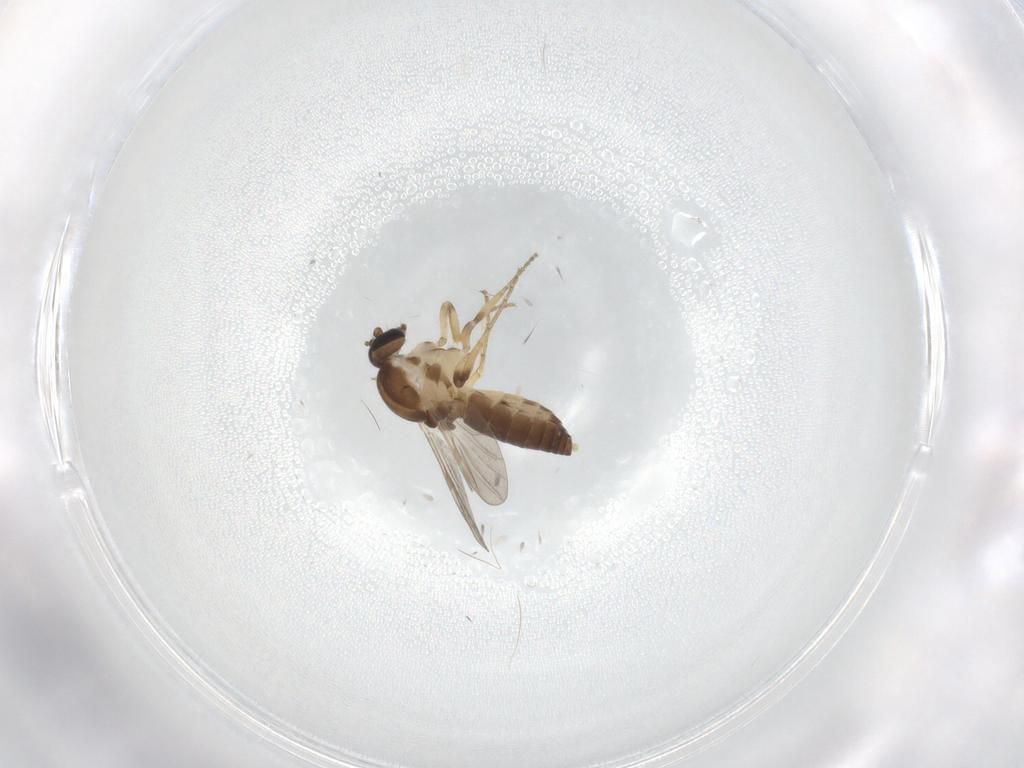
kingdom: Animalia
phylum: Arthropoda
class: Insecta
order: Diptera
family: Ceratopogonidae
